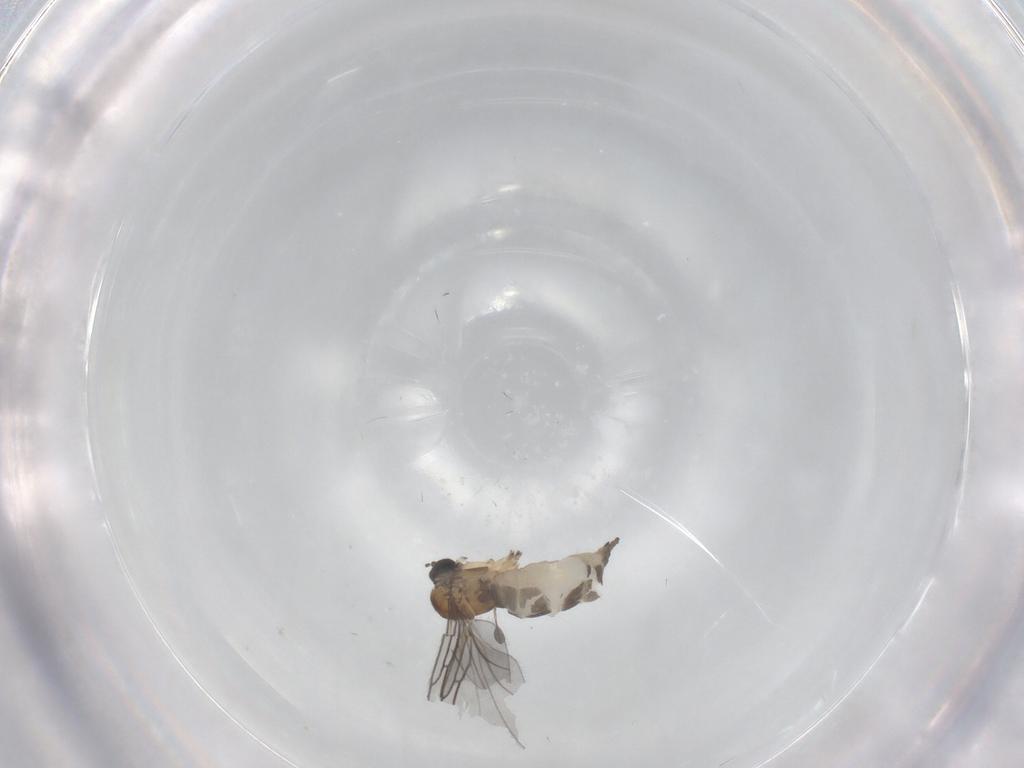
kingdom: Animalia
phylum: Arthropoda
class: Insecta
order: Diptera
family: Sciaridae
